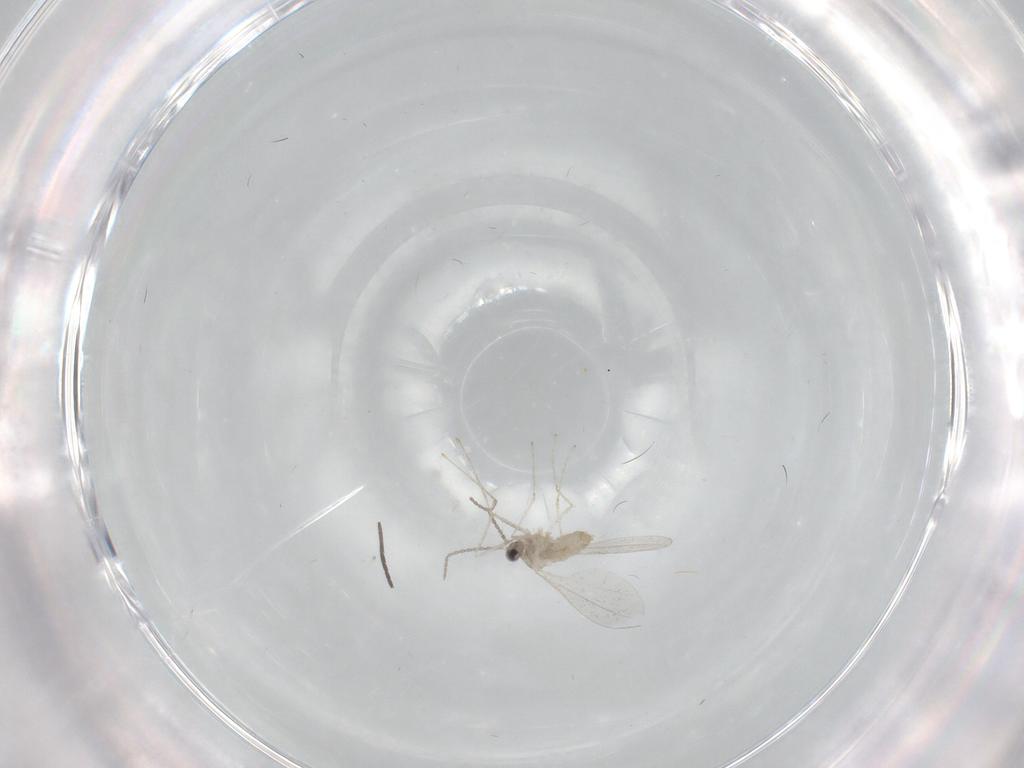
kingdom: Animalia
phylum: Arthropoda
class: Insecta
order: Diptera
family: Sciaridae
